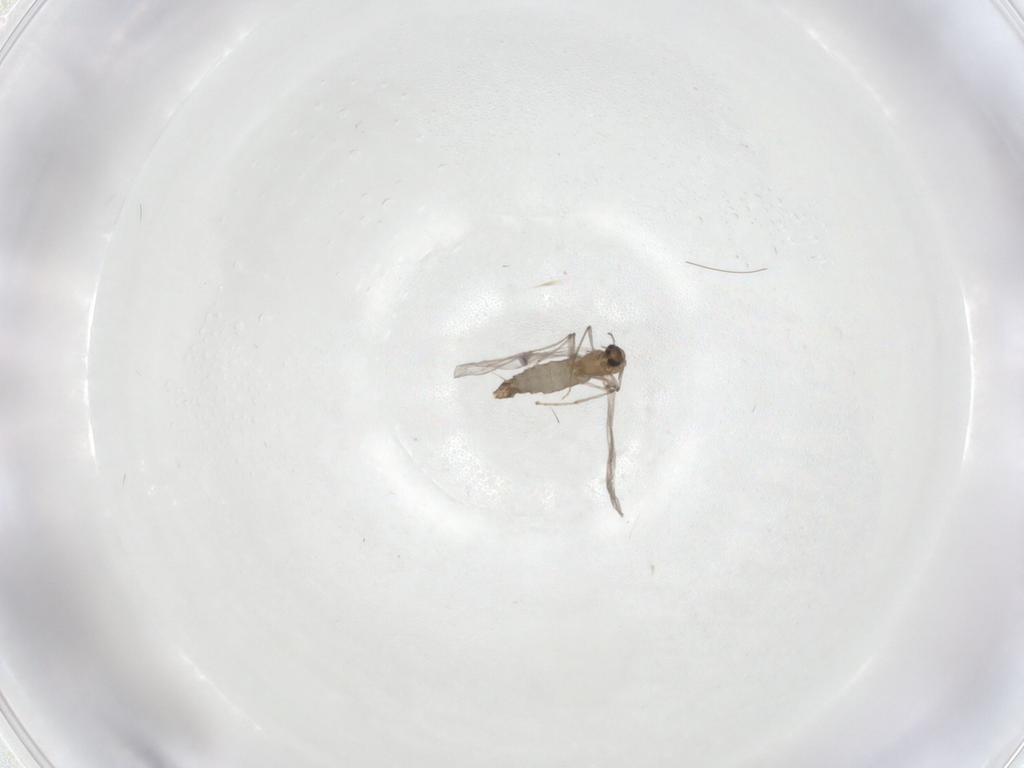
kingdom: Animalia
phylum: Arthropoda
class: Insecta
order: Diptera
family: Chironomidae
